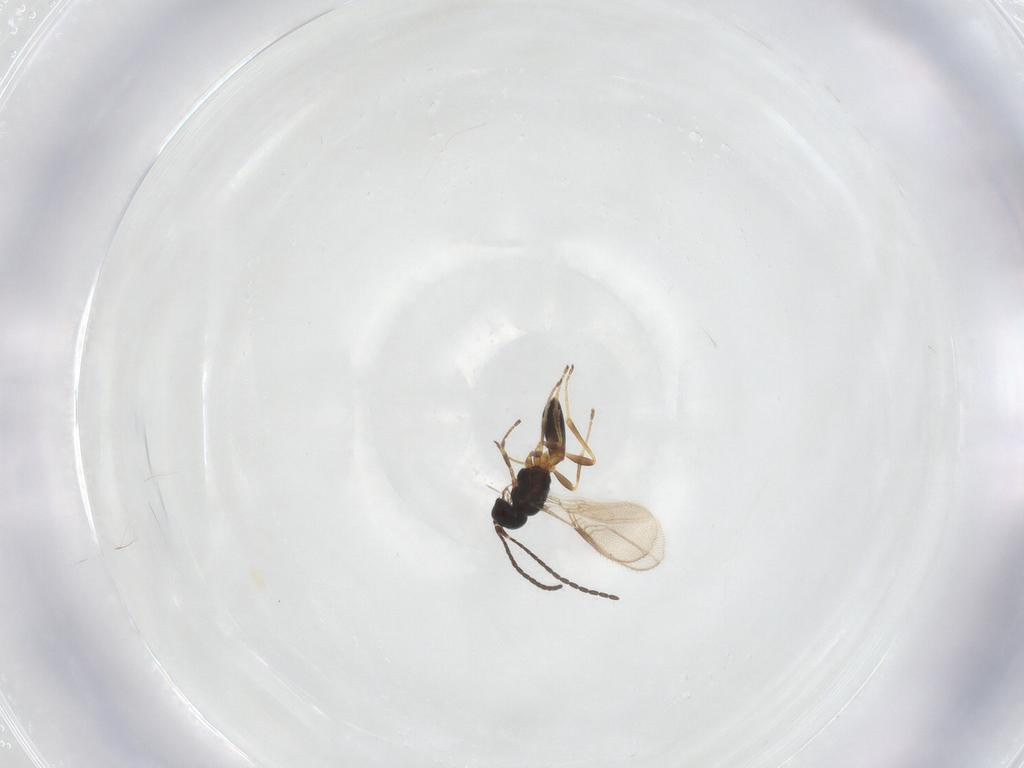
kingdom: Animalia
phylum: Arthropoda
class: Insecta
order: Hymenoptera
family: Braconidae
